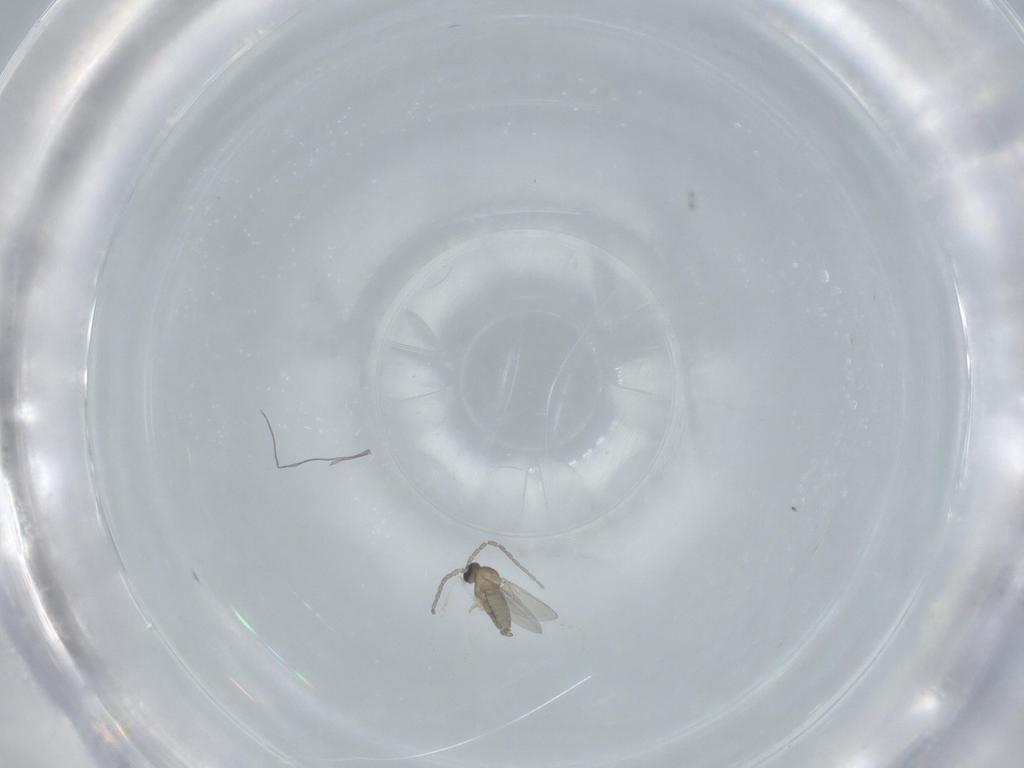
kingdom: Animalia
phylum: Arthropoda
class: Insecta
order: Diptera
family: Cecidomyiidae
